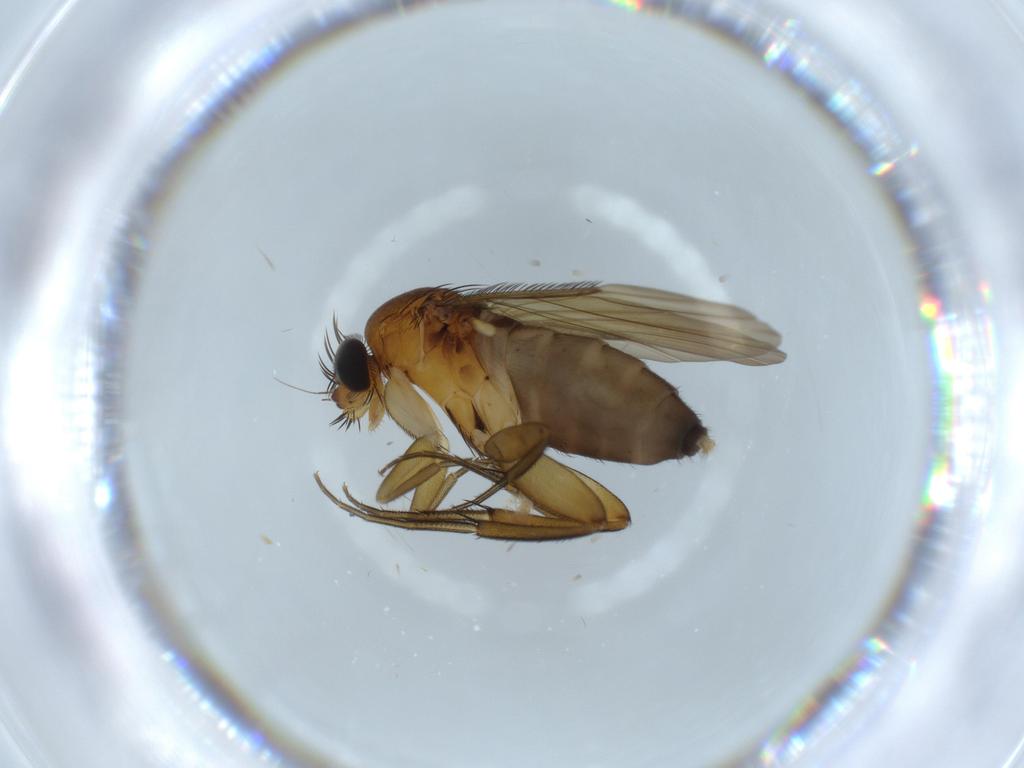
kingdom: Animalia
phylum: Arthropoda
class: Insecta
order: Diptera
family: Phoridae
